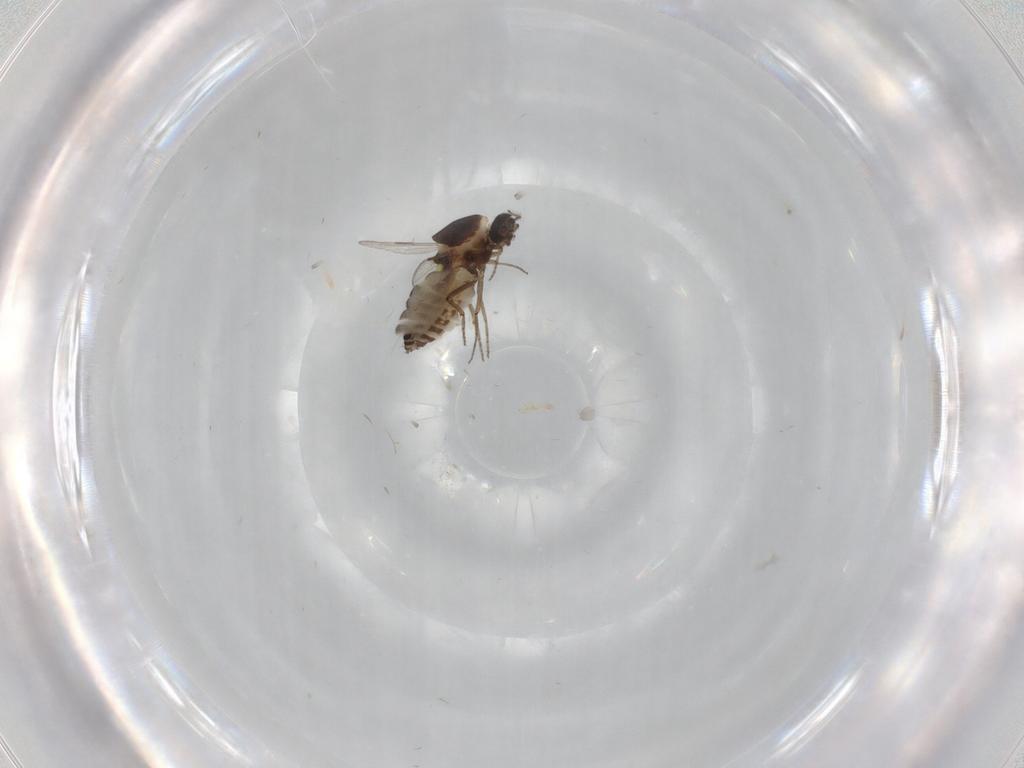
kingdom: Animalia
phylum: Arthropoda
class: Insecta
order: Diptera
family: Ceratopogonidae
